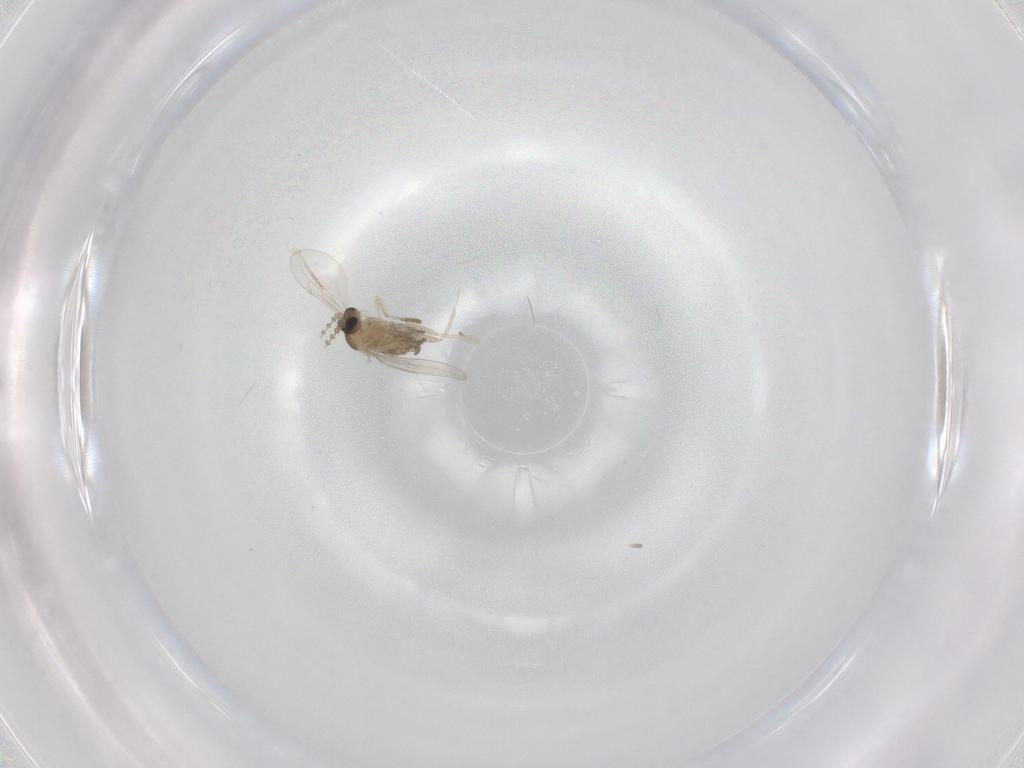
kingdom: Animalia
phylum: Arthropoda
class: Insecta
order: Diptera
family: Cecidomyiidae
